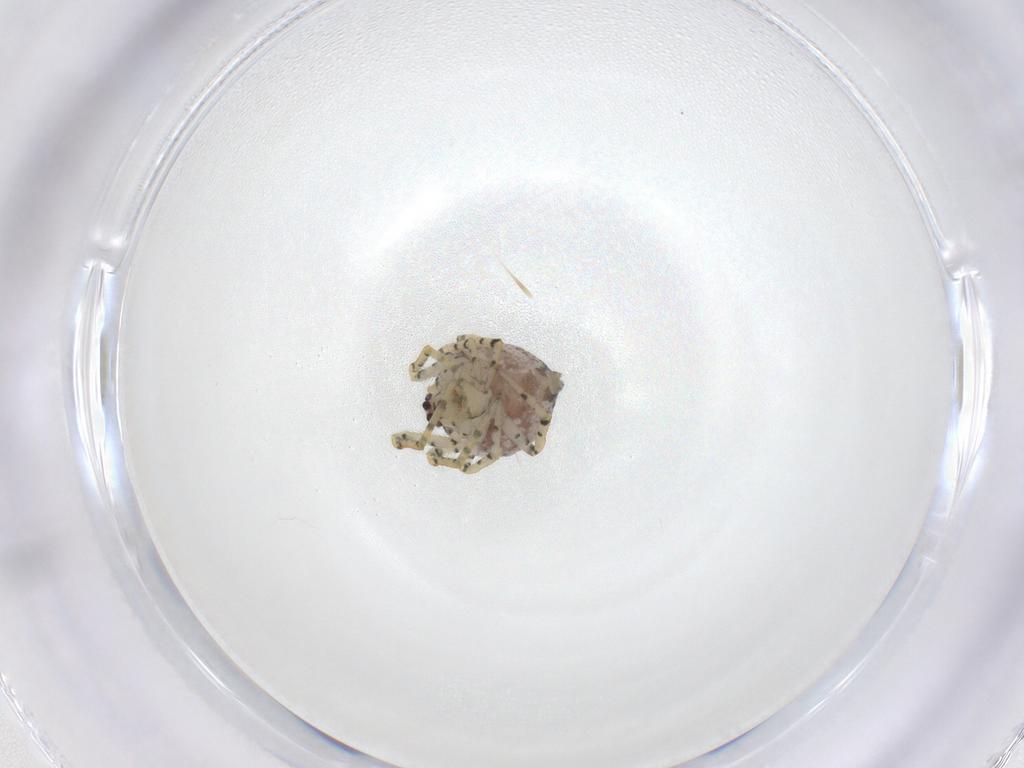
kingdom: Animalia
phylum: Arthropoda
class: Arachnida
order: Araneae
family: Theridiidae
